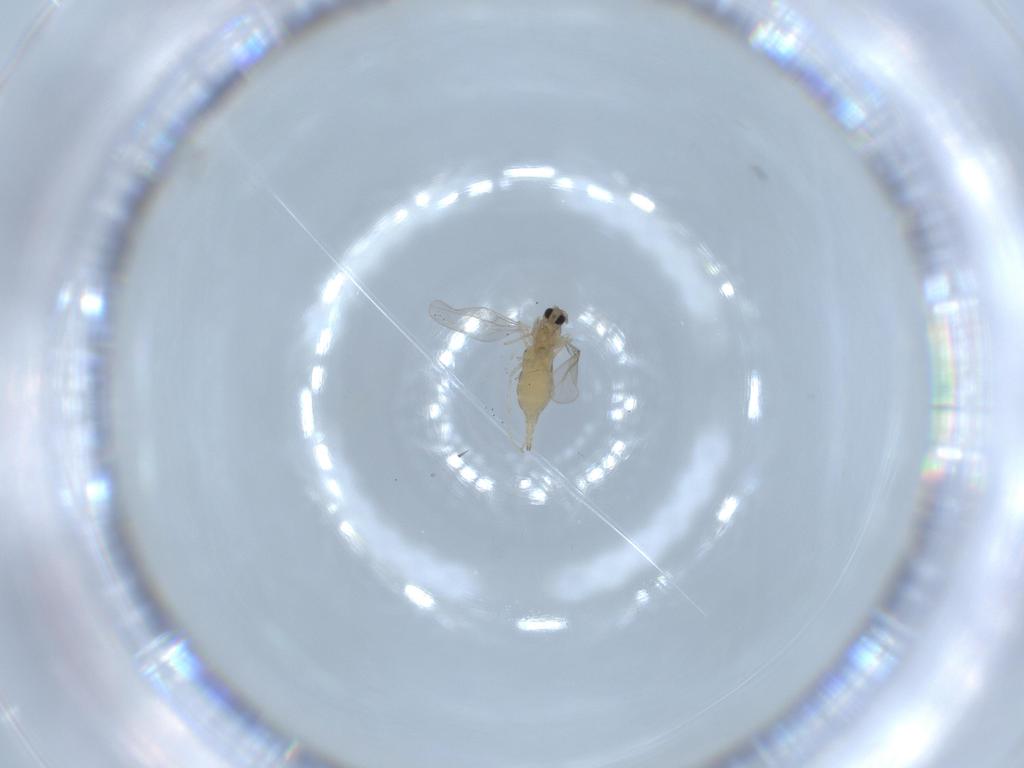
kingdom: Animalia
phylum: Arthropoda
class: Insecta
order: Diptera
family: Cecidomyiidae
